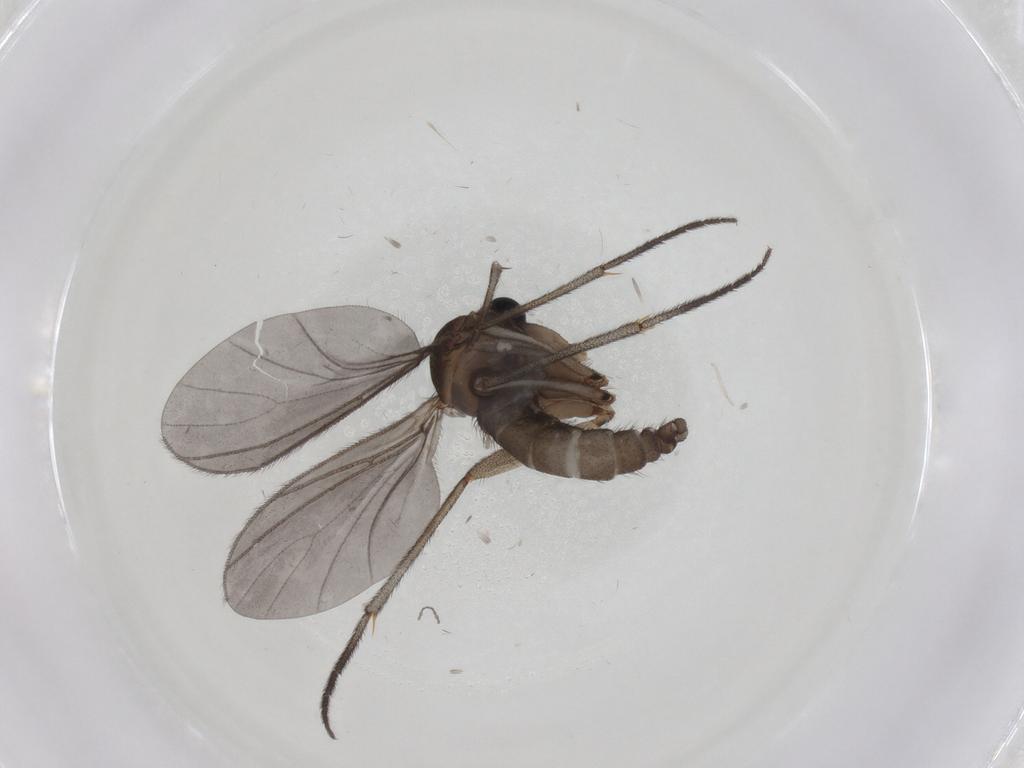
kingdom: Animalia
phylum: Arthropoda
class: Insecta
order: Diptera
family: Sciaridae
